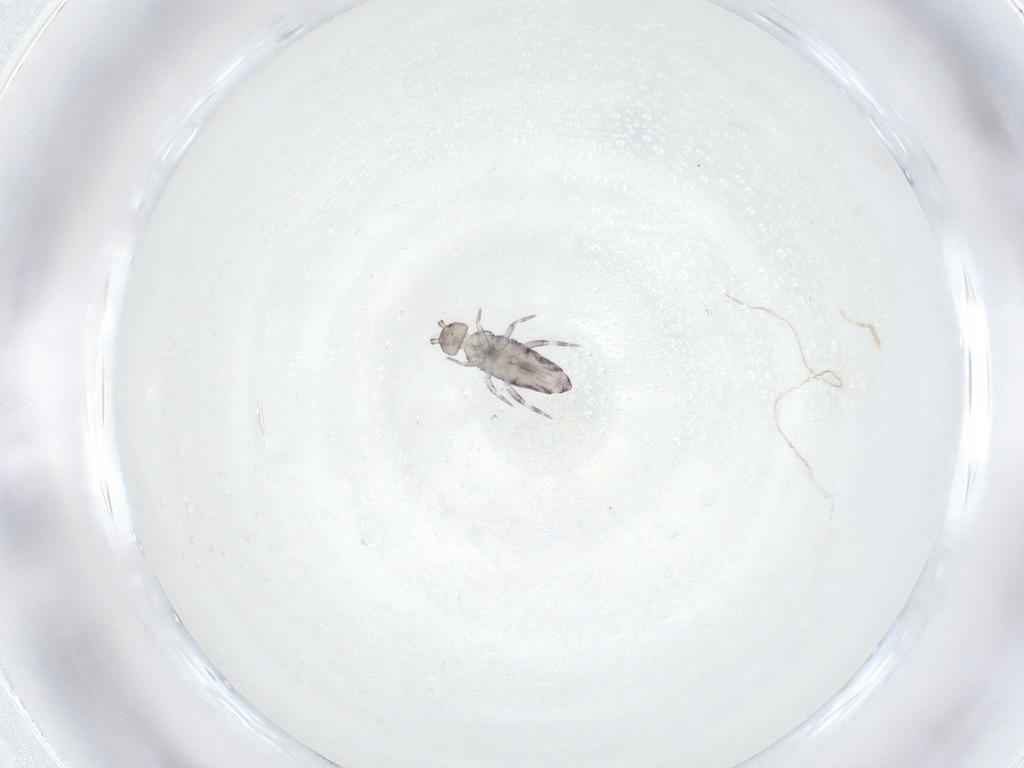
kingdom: Animalia
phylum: Arthropoda
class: Collembola
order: Entomobryomorpha
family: Entomobryidae
